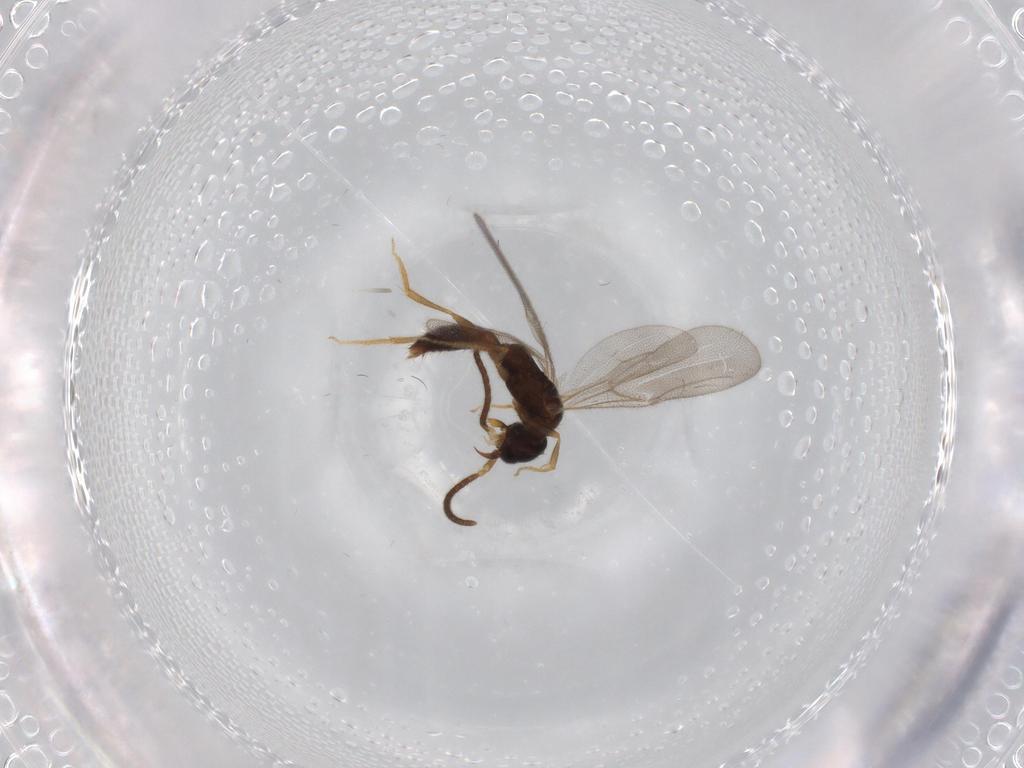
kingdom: Animalia
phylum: Arthropoda
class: Insecta
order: Hymenoptera
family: Bethylidae
